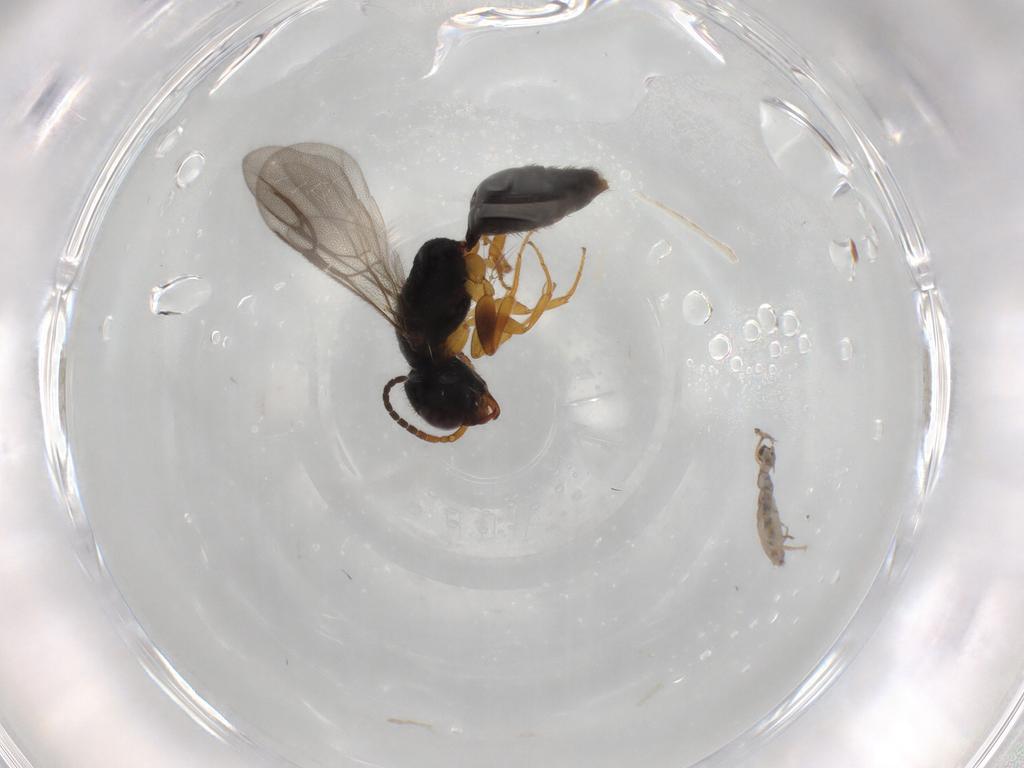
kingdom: Animalia
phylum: Arthropoda
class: Insecta
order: Hymenoptera
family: Bethylidae
